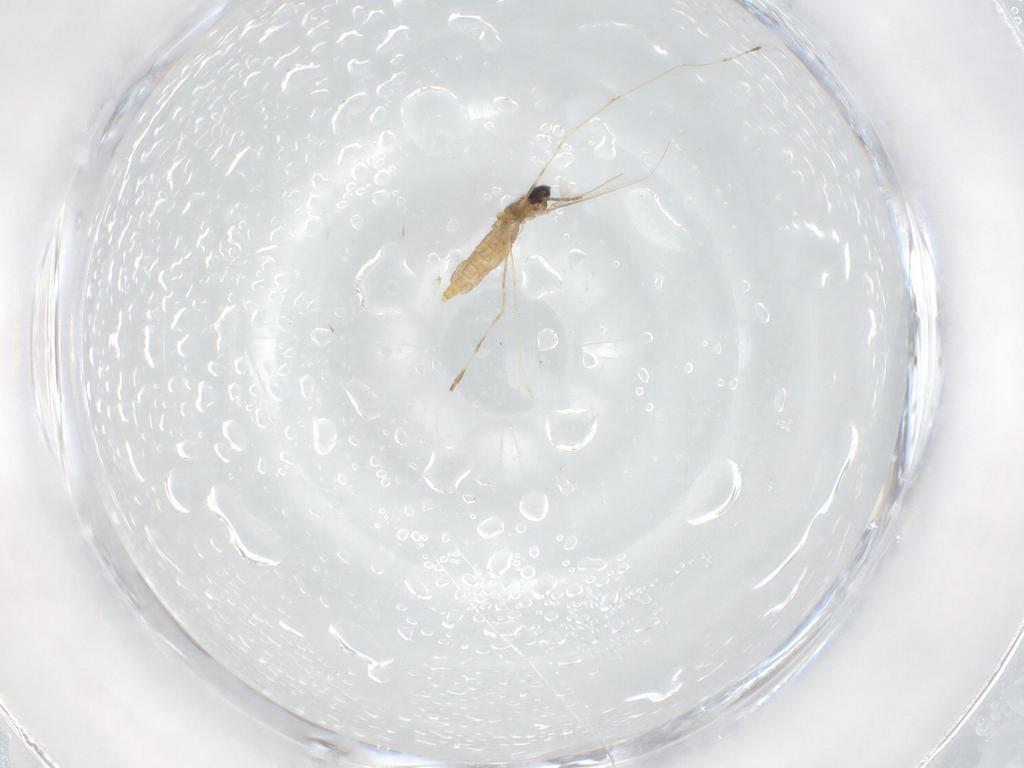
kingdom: Animalia
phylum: Arthropoda
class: Insecta
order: Diptera
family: Cecidomyiidae
